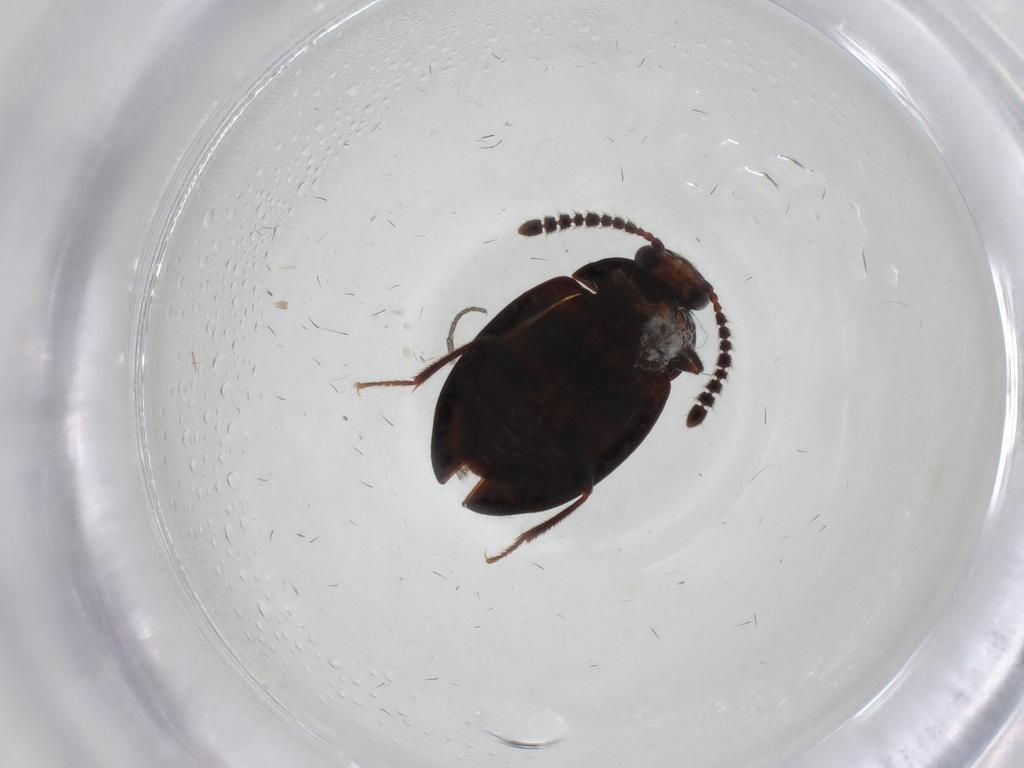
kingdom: Animalia
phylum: Arthropoda
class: Insecta
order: Coleoptera
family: Leiodidae
